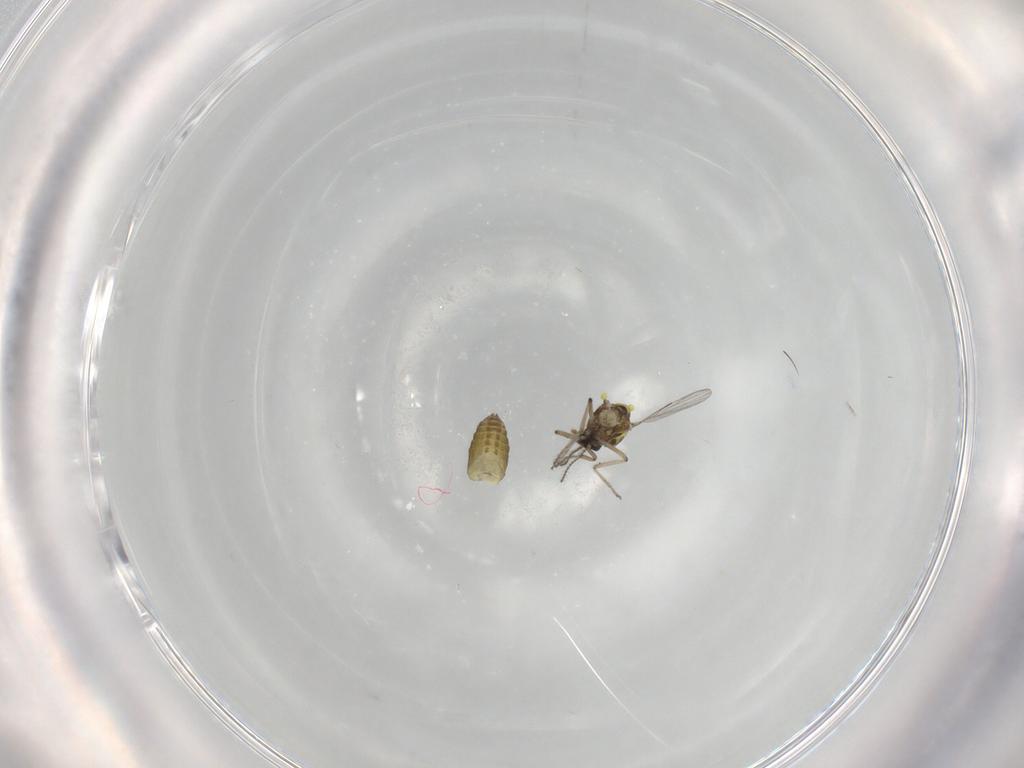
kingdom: Animalia
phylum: Arthropoda
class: Insecta
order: Diptera
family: Ceratopogonidae
